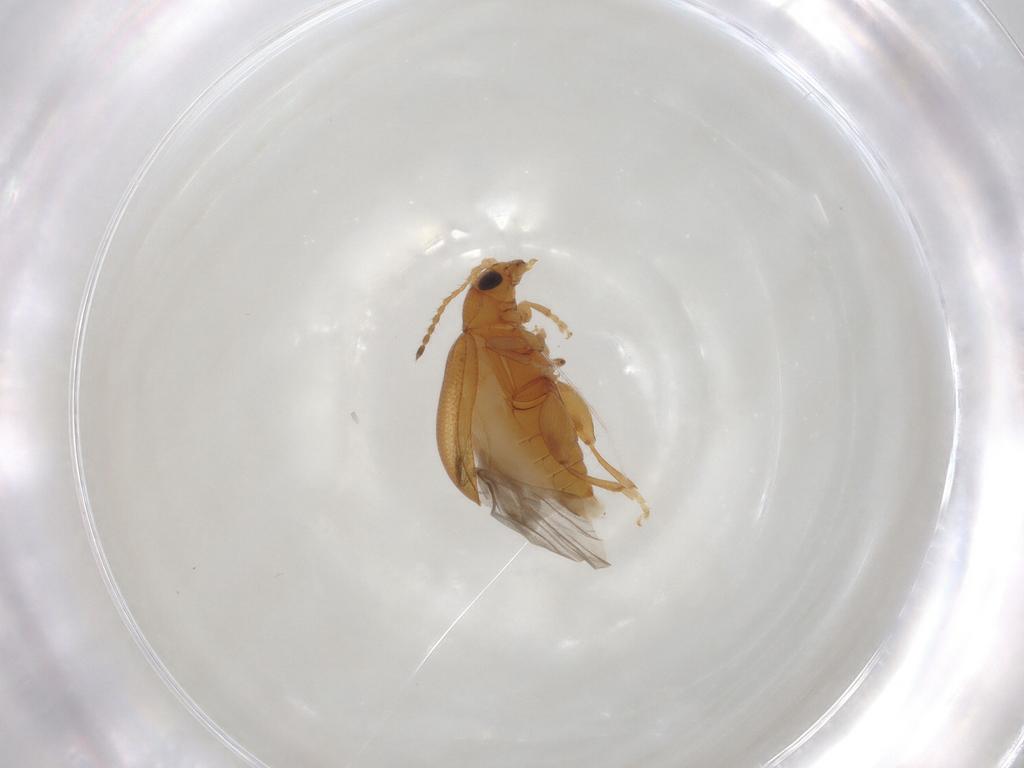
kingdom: Animalia
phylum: Arthropoda
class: Insecta
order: Coleoptera
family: Chrysomelidae
